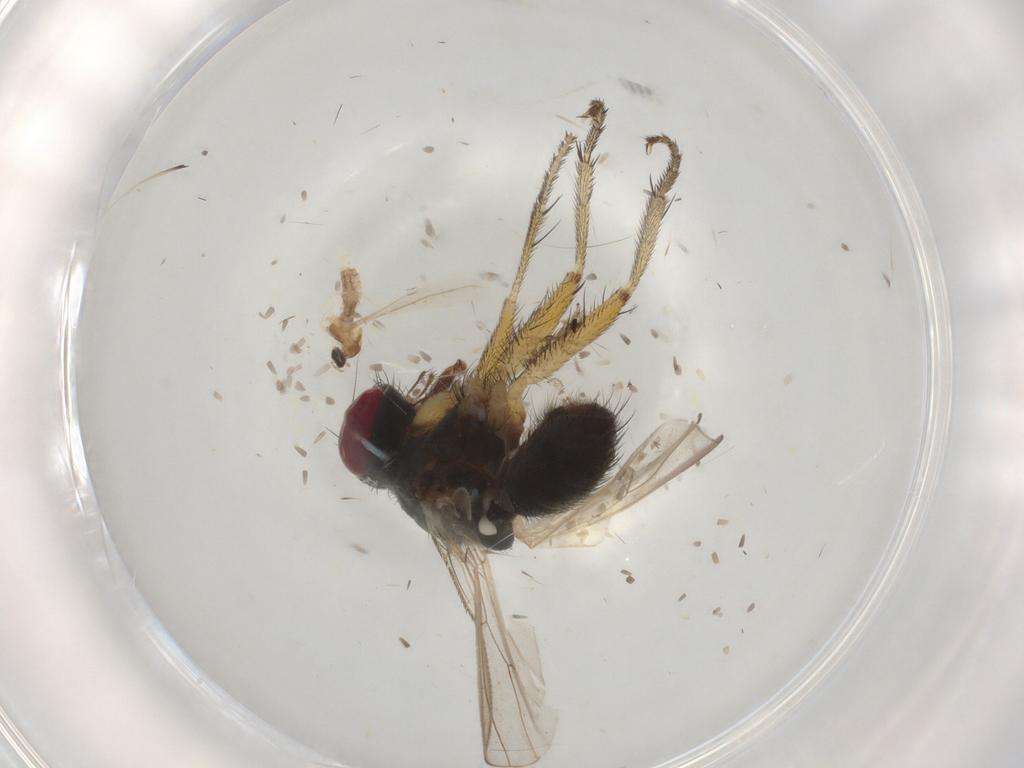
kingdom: Animalia
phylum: Arthropoda
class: Insecta
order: Diptera
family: Muscidae
